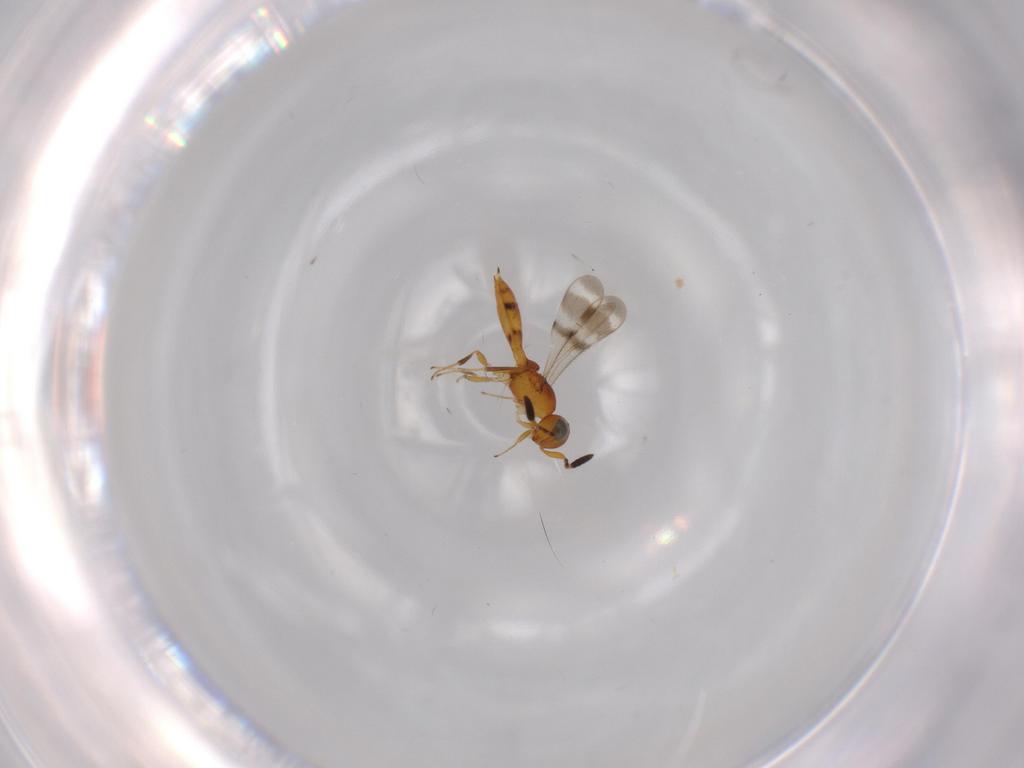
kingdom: Animalia
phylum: Arthropoda
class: Insecta
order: Hymenoptera
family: Scelionidae
